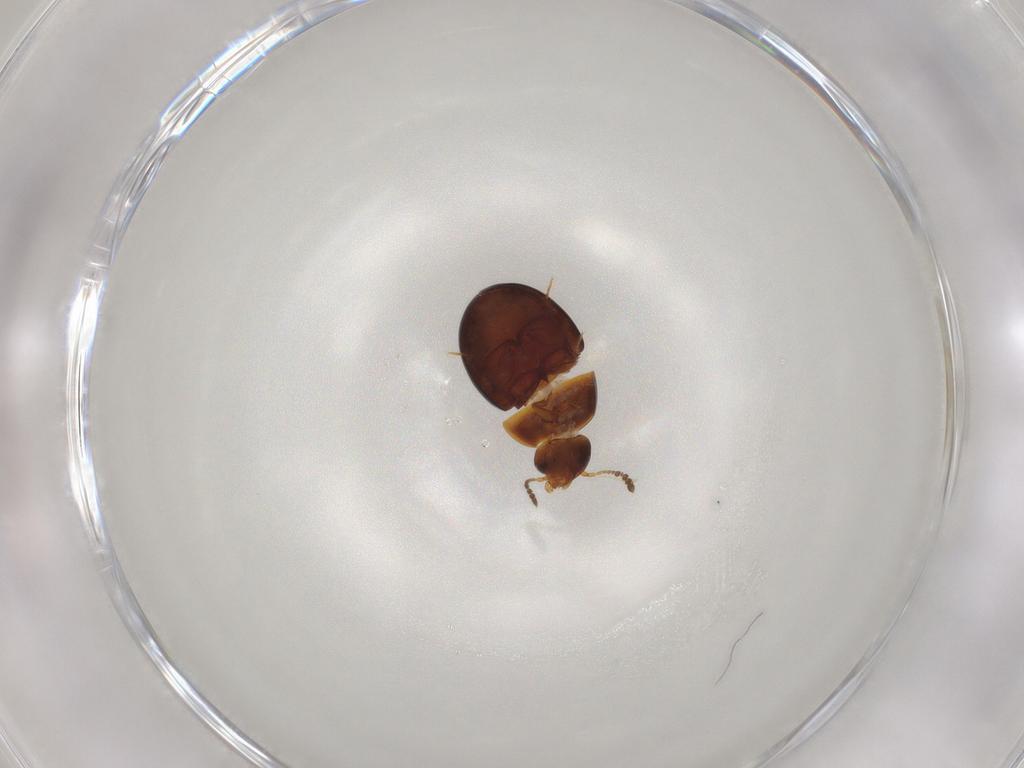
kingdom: Animalia
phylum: Arthropoda
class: Insecta
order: Coleoptera
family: Leiodidae
